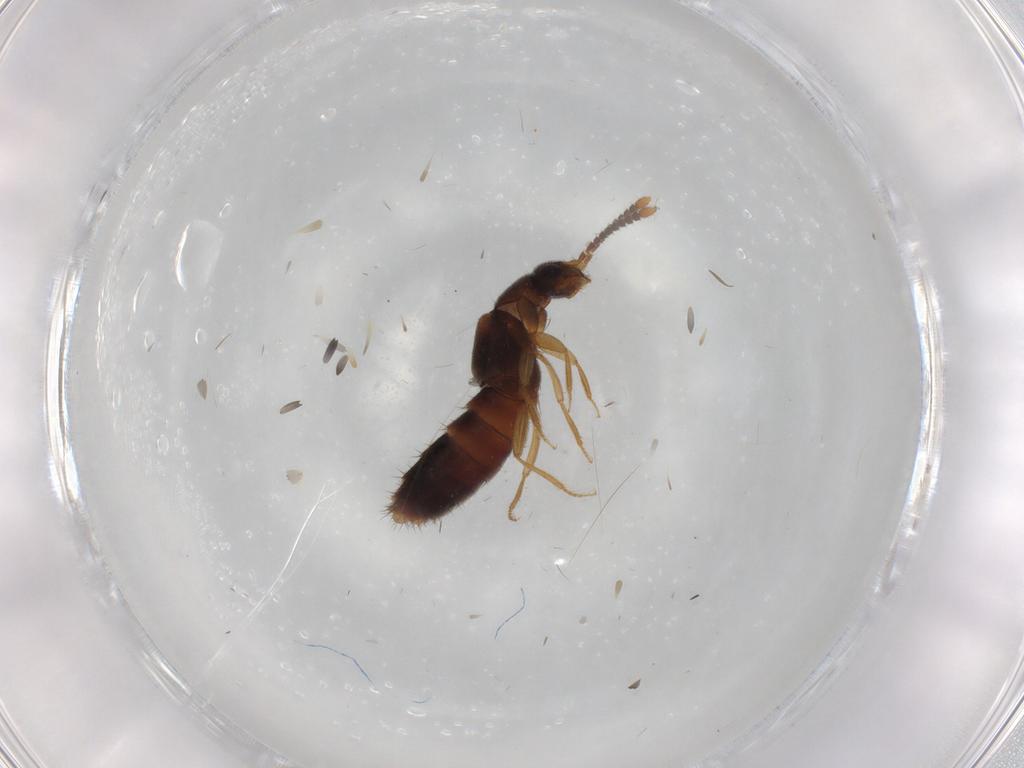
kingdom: Animalia
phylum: Arthropoda
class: Insecta
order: Coleoptera
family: Staphylinidae
